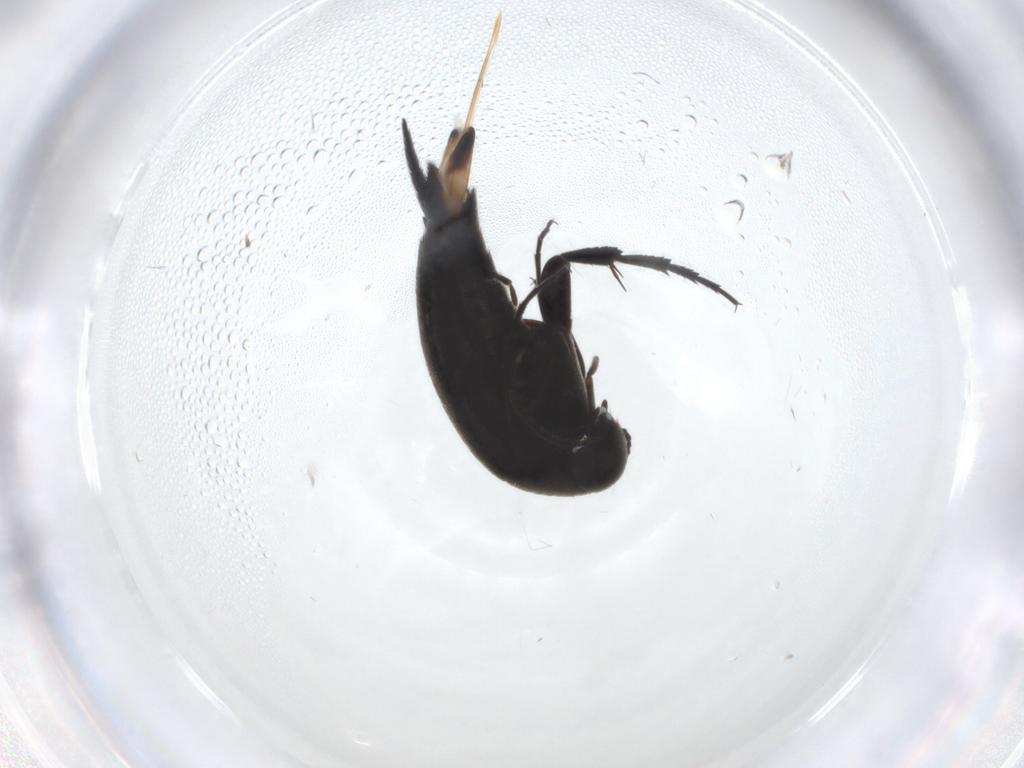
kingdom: Animalia
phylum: Arthropoda
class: Insecta
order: Coleoptera
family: Mordellidae
